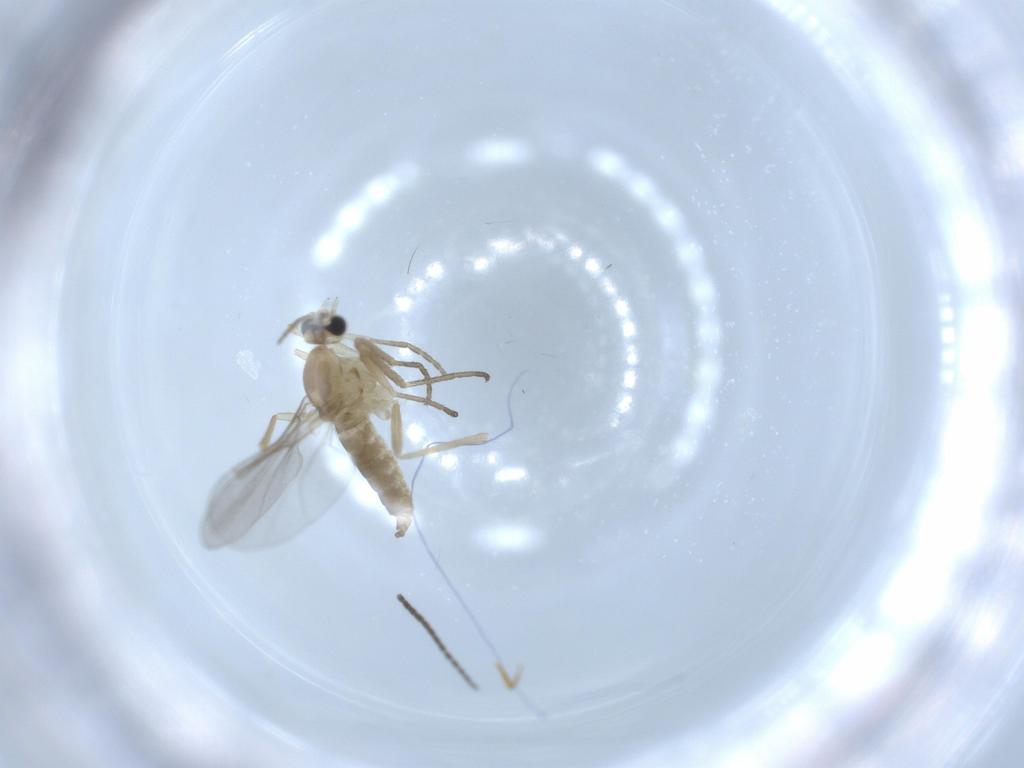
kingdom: Animalia
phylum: Arthropoda
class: Insecta
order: Diptera
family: Cecidomyiidae
